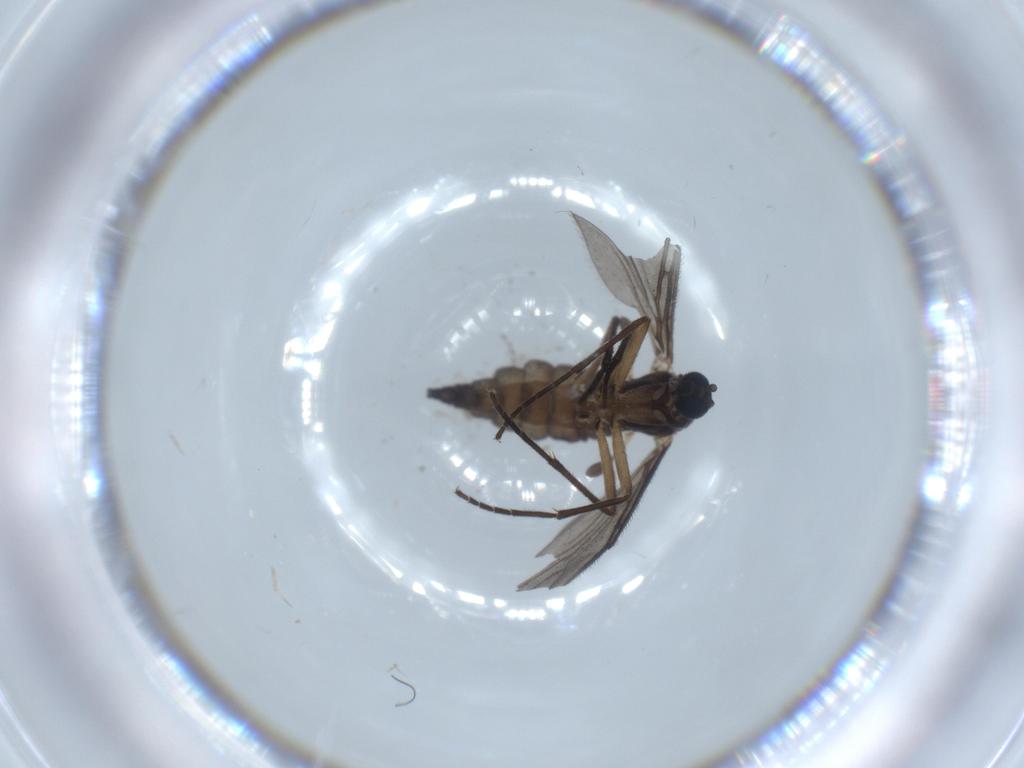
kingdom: Animalia
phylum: Arthropoda
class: Insecta
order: Diptera
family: Sciaridae
